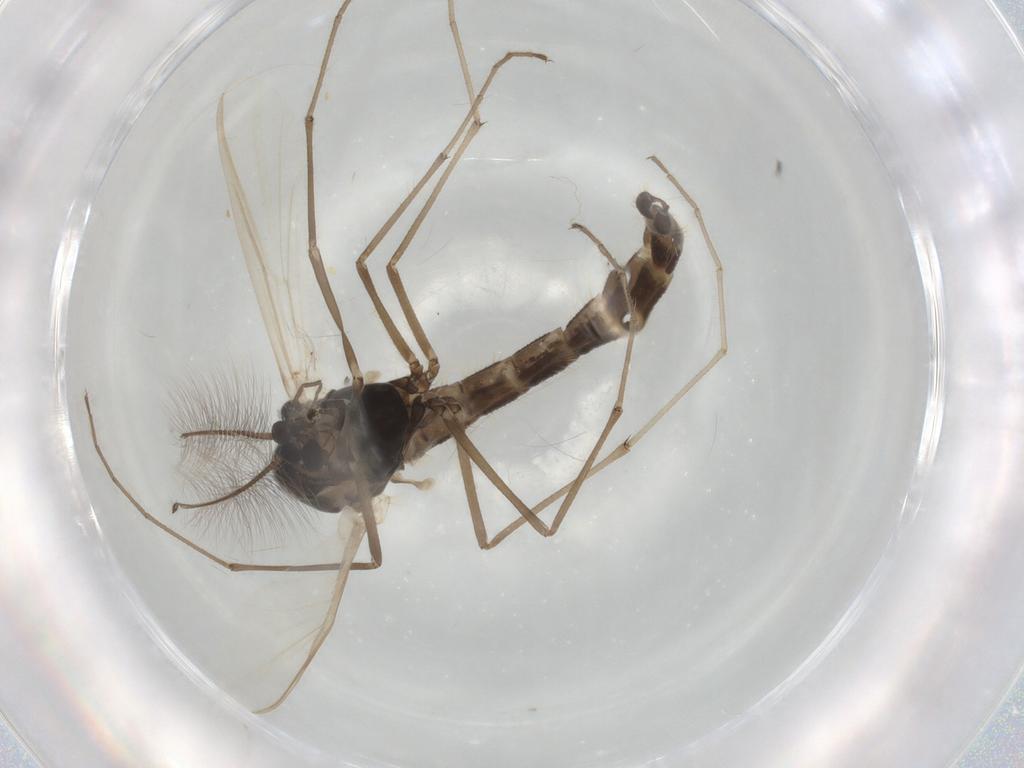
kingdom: Animalia
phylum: Arthropoda
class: Insecta
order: Diptera
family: Chironomidae
